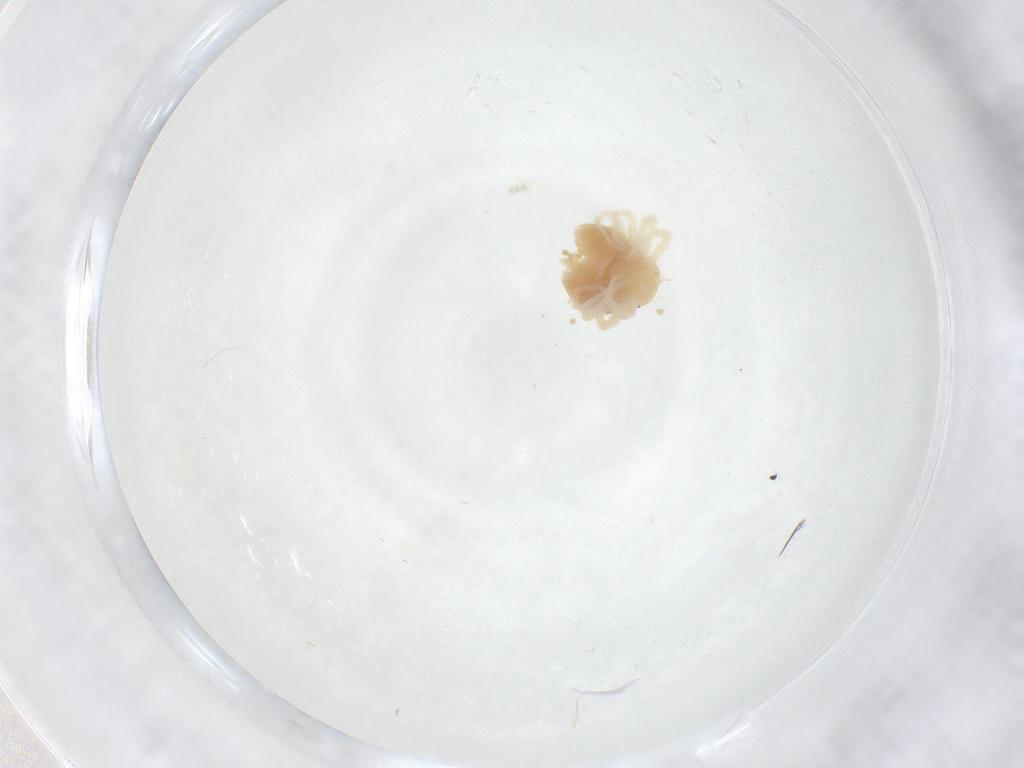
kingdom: Animalia
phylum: Arthropoda
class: Arachnida
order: Trombidiformes
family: Anystidae
